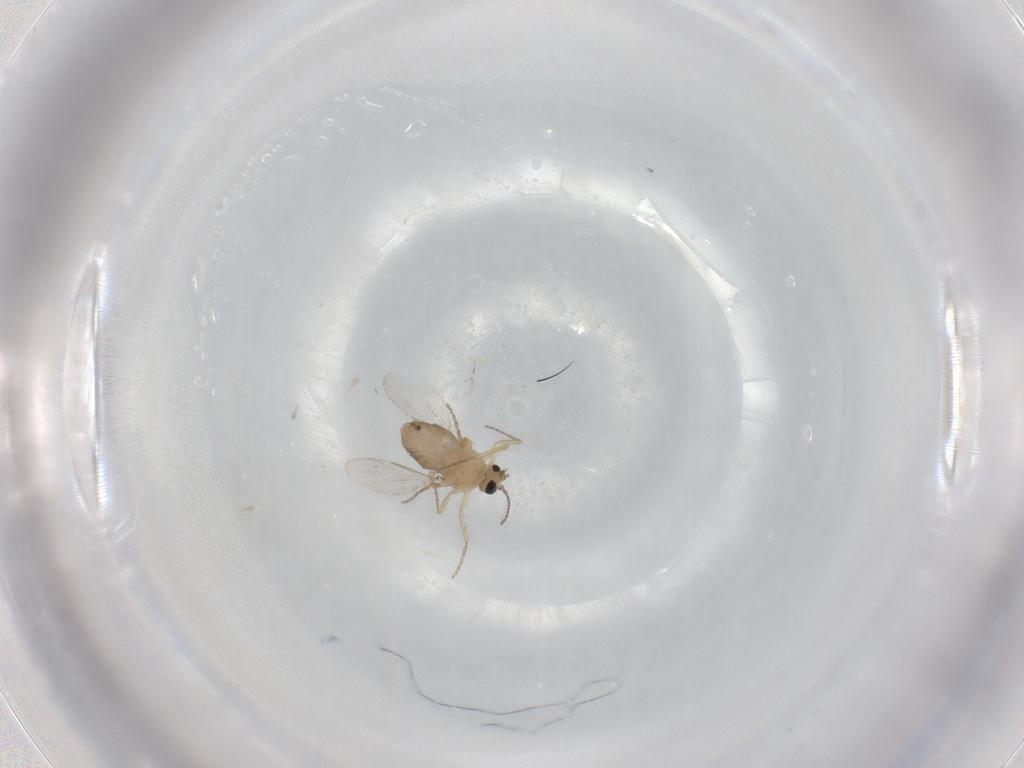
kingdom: Animalia
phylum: Arthropoda
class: Insecta
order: Diptera
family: Ceratopogonidae
